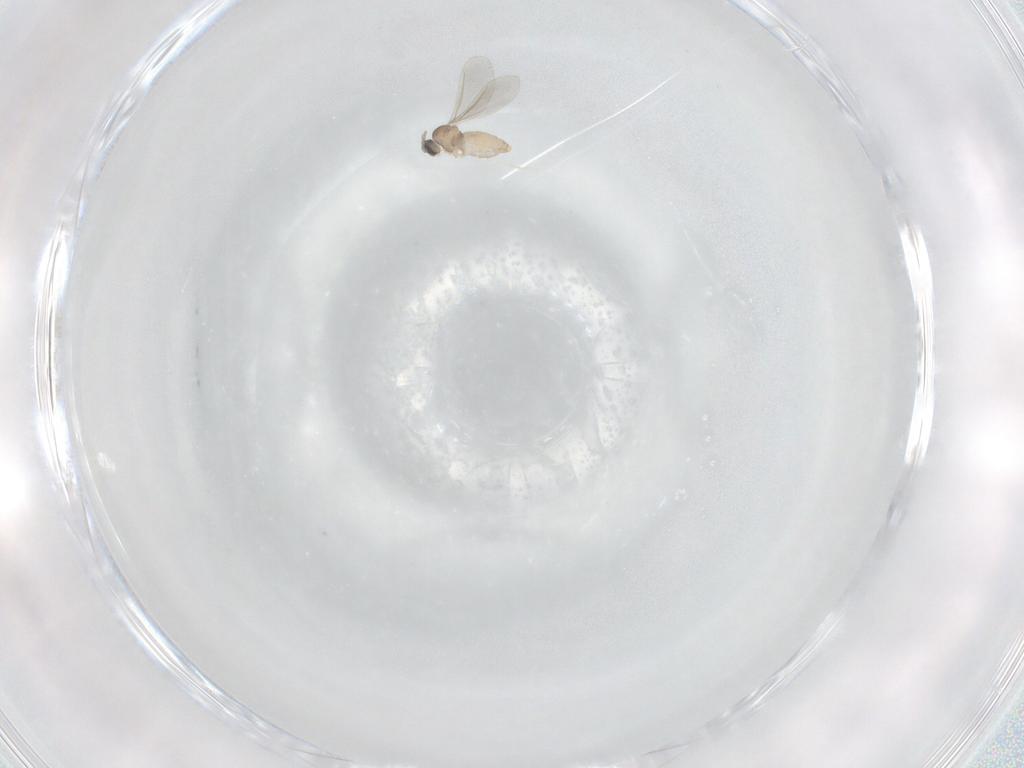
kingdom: Animalia
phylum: Arthropoda
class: Insecta
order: Diptera
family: Cecidomyiidae
